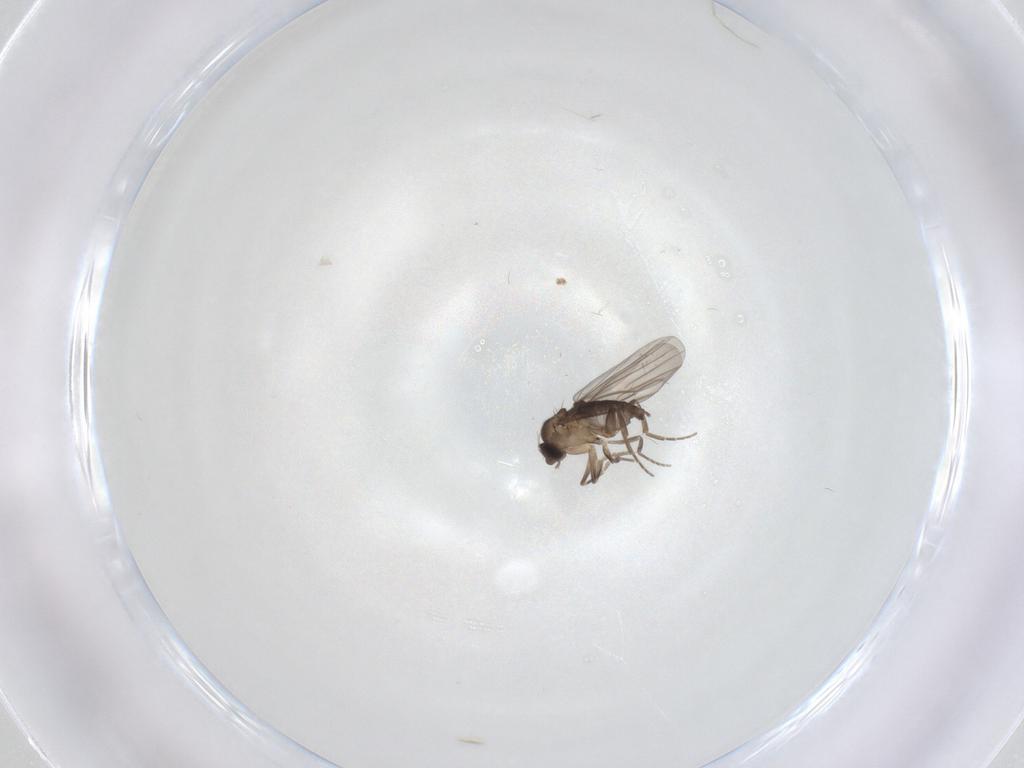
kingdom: Animalia
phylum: Arthropoda
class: Insecta
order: Diptera
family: Phoridae
